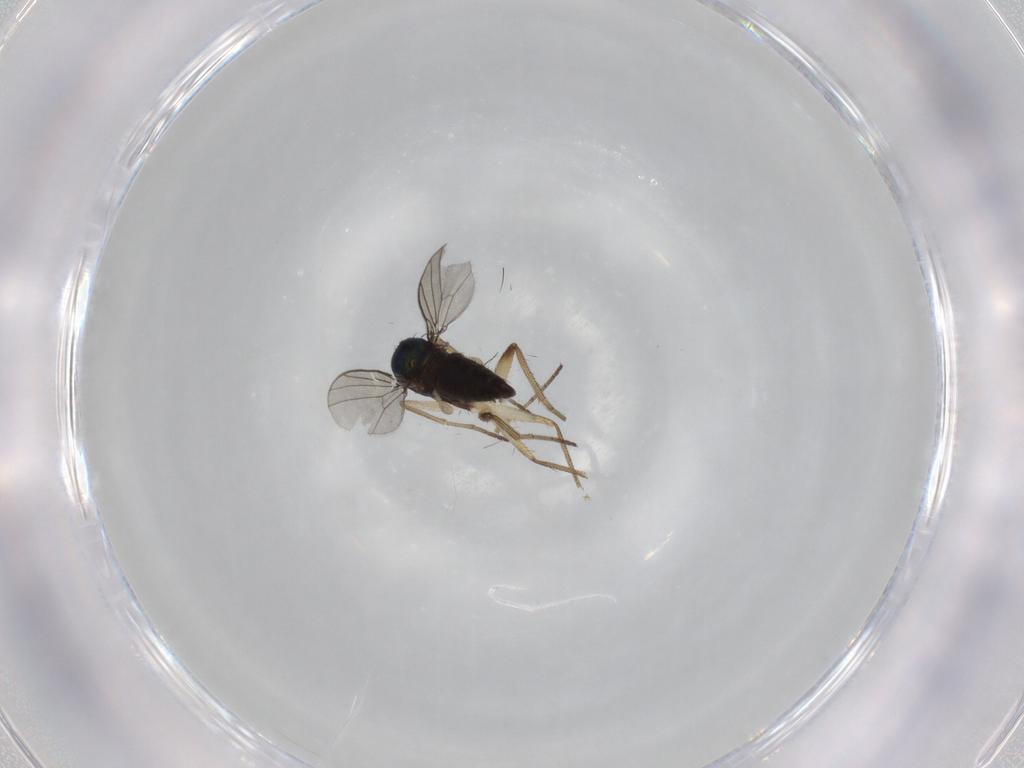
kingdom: Animalia
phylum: Arthropoda
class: Insecta
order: Diptera
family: Dolichopodidae
